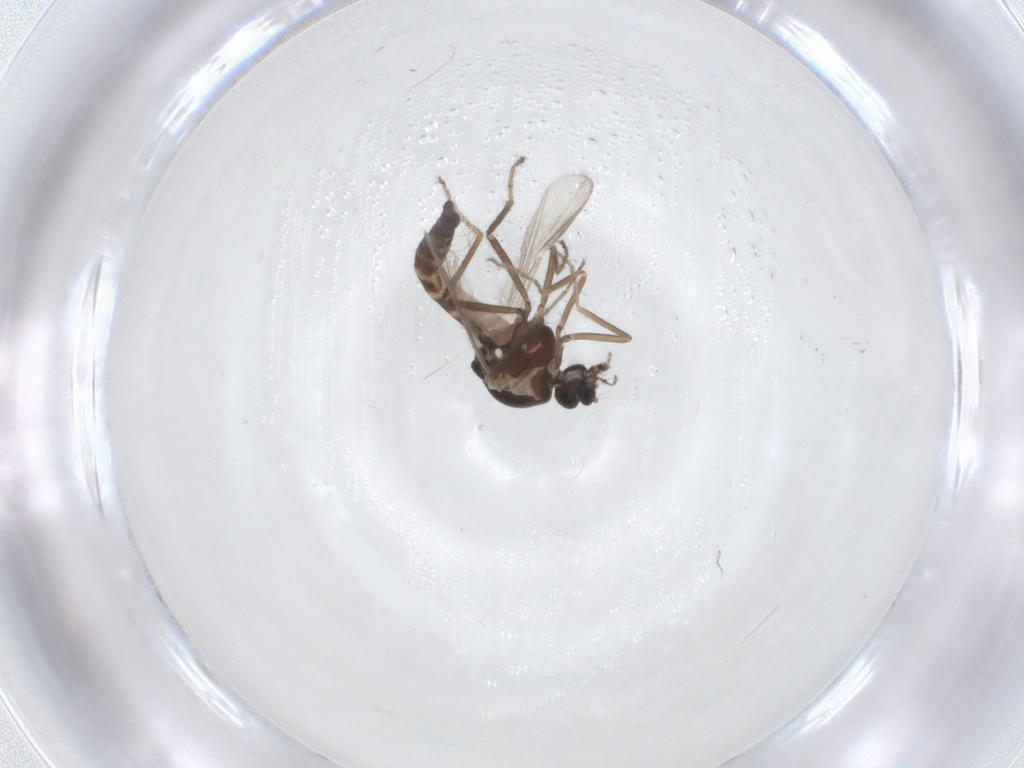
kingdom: Animalia
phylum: Arthropoda
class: Insecta
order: Diptera
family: Ceratopogonidae
